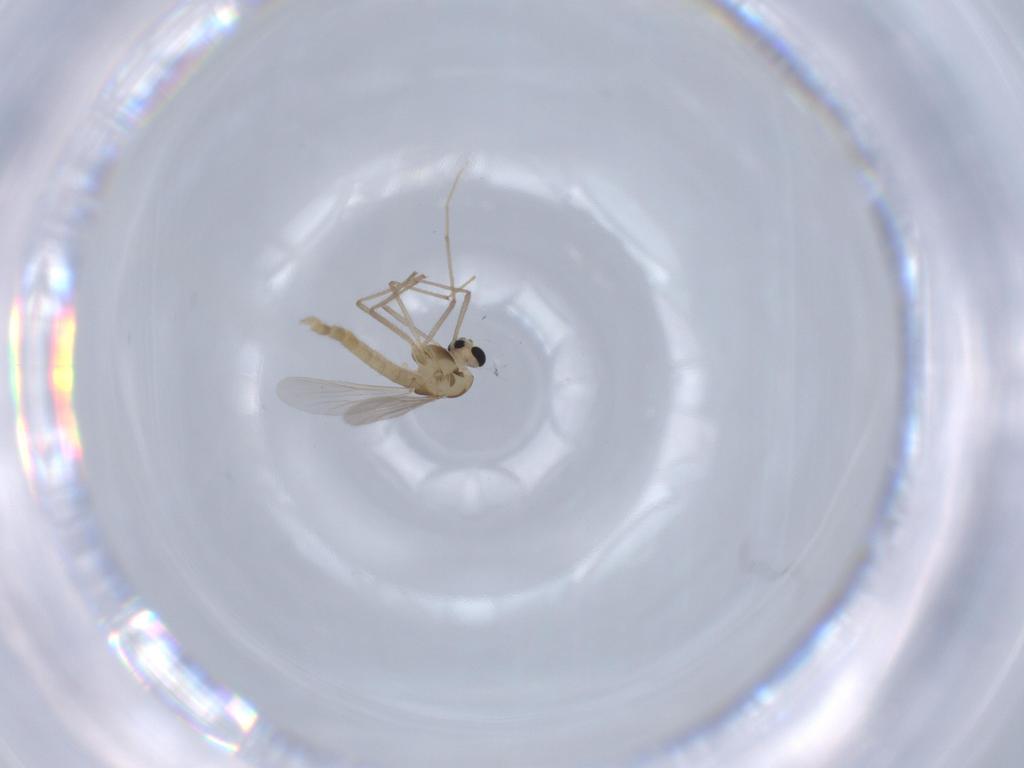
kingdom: Animalia
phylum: Arthropoda
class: Insecta
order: Diptera
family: Chironomidae
